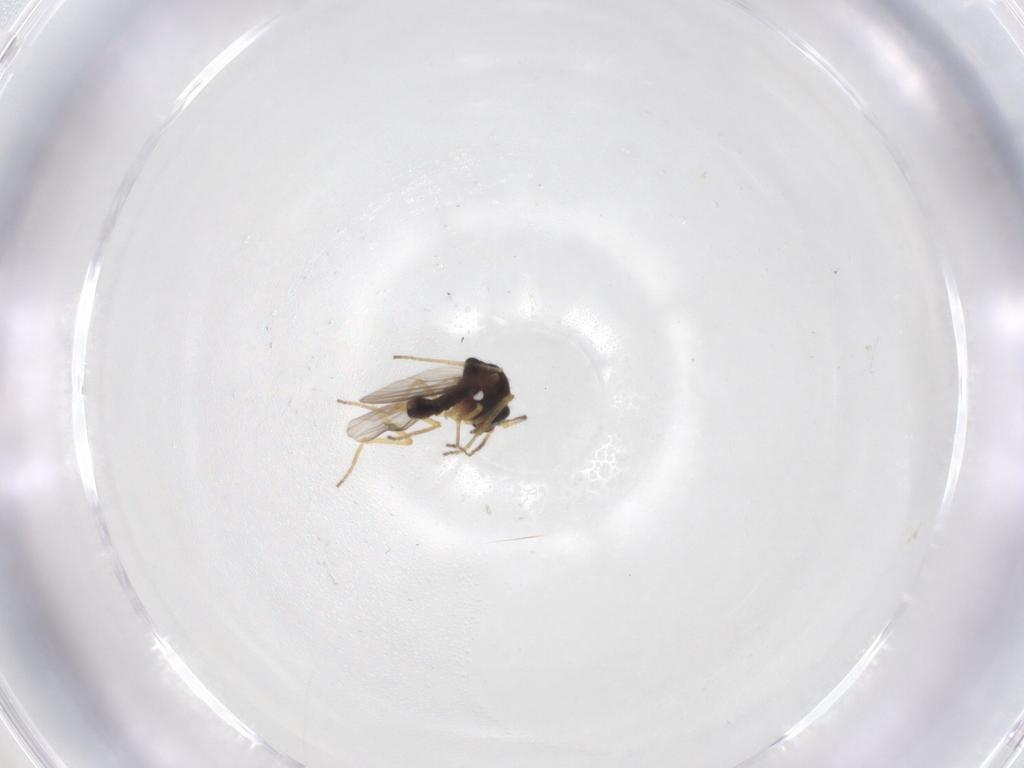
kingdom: Animalia
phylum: Arthropoda
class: Insecta
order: Diptera
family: Ceratopogonidae
